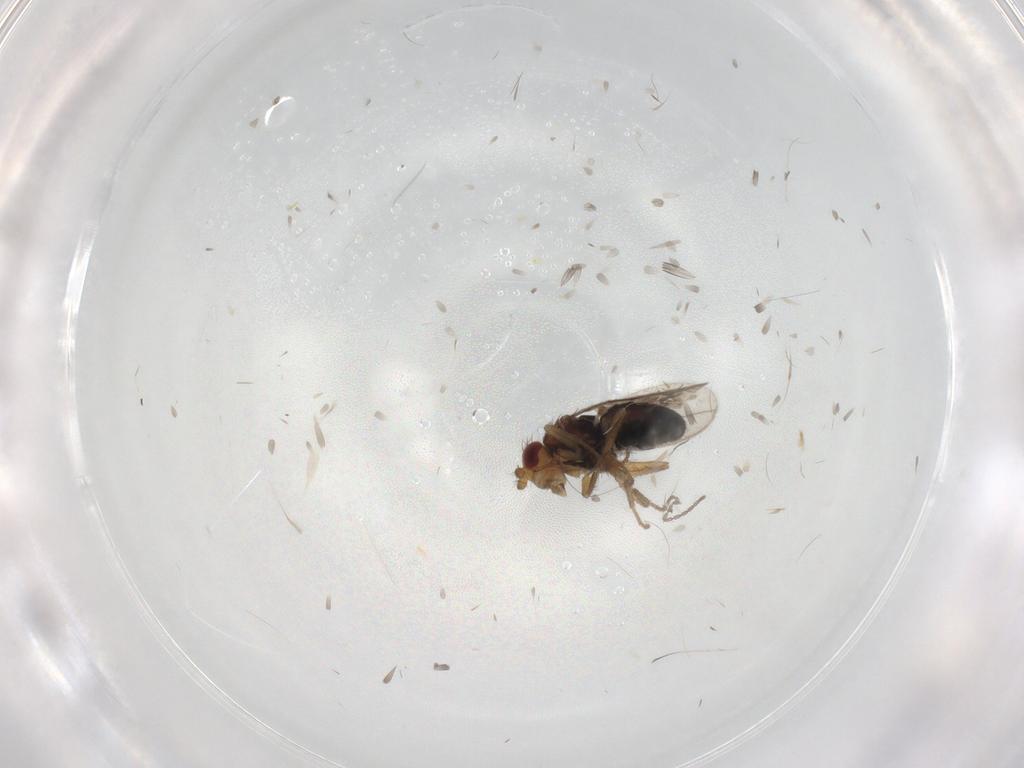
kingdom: Animalia
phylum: Arthropoda
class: Insecta
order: Diptera
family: Sphaeroceridae
